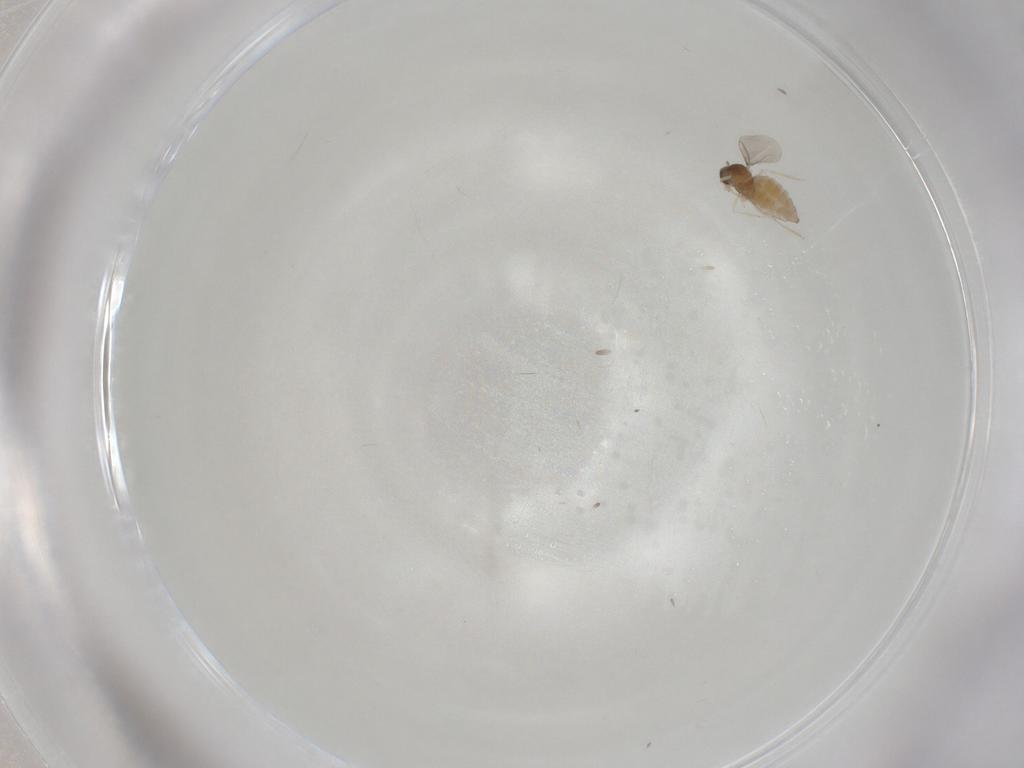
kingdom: Animalia
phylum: Arthropoda
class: Insecta
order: Diptera
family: Cecidomyiidae
